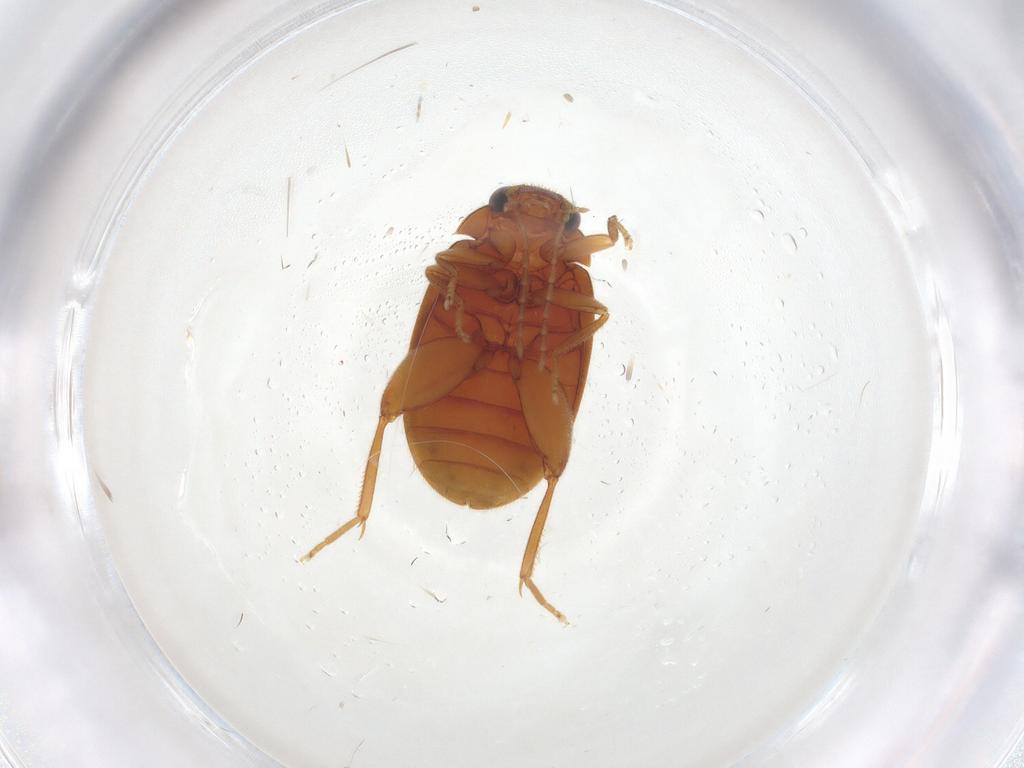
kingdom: Animalia
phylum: Arthropoda
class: Insecta
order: Coleoptera
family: Scirtidae
